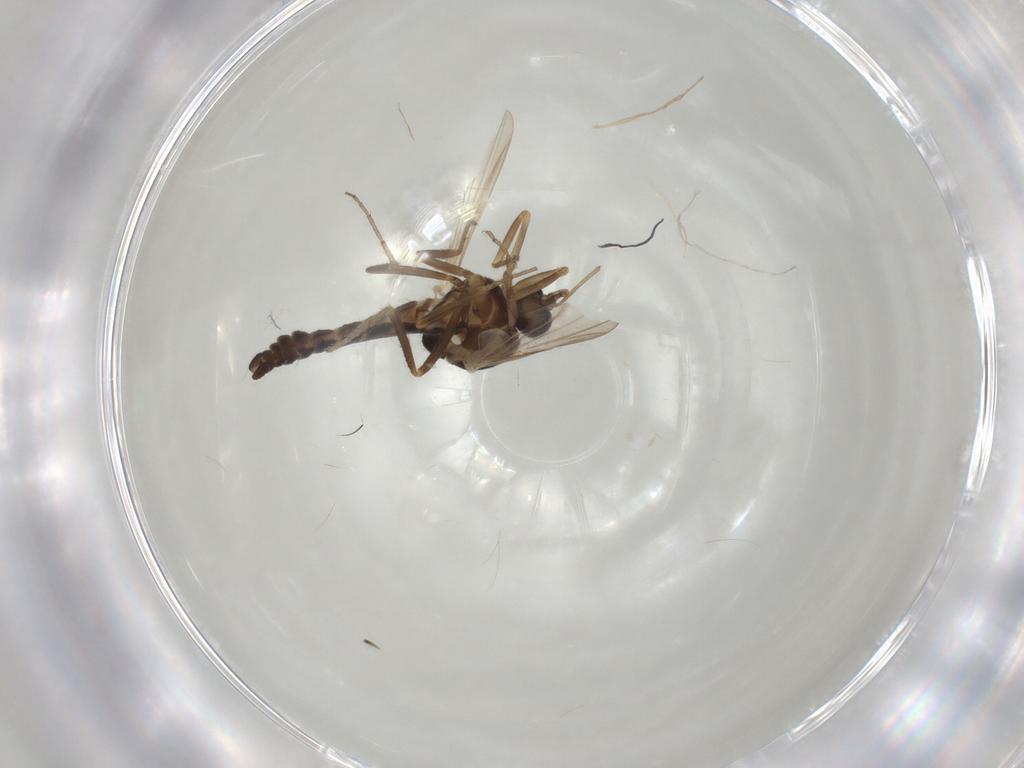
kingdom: Animalia
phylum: Arthropoda
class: Insecta
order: Diptera
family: Ceratopogonidae
